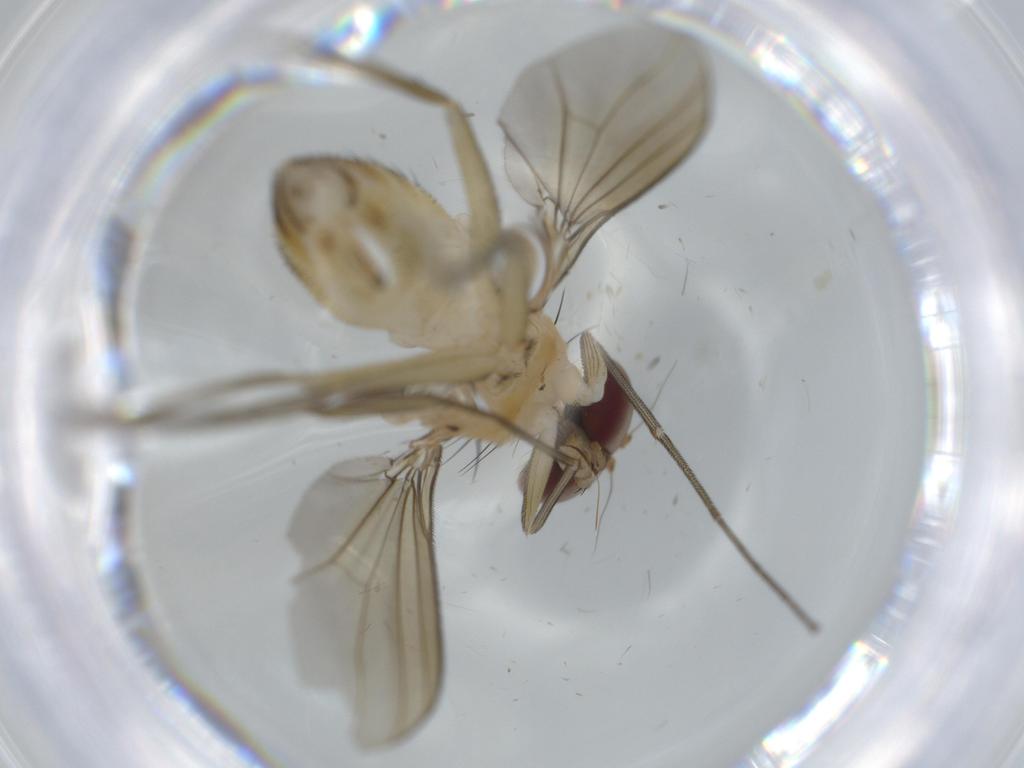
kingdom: Animalia
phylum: Arthropoda
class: Insecta
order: Diptera
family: Dolichopodidae
